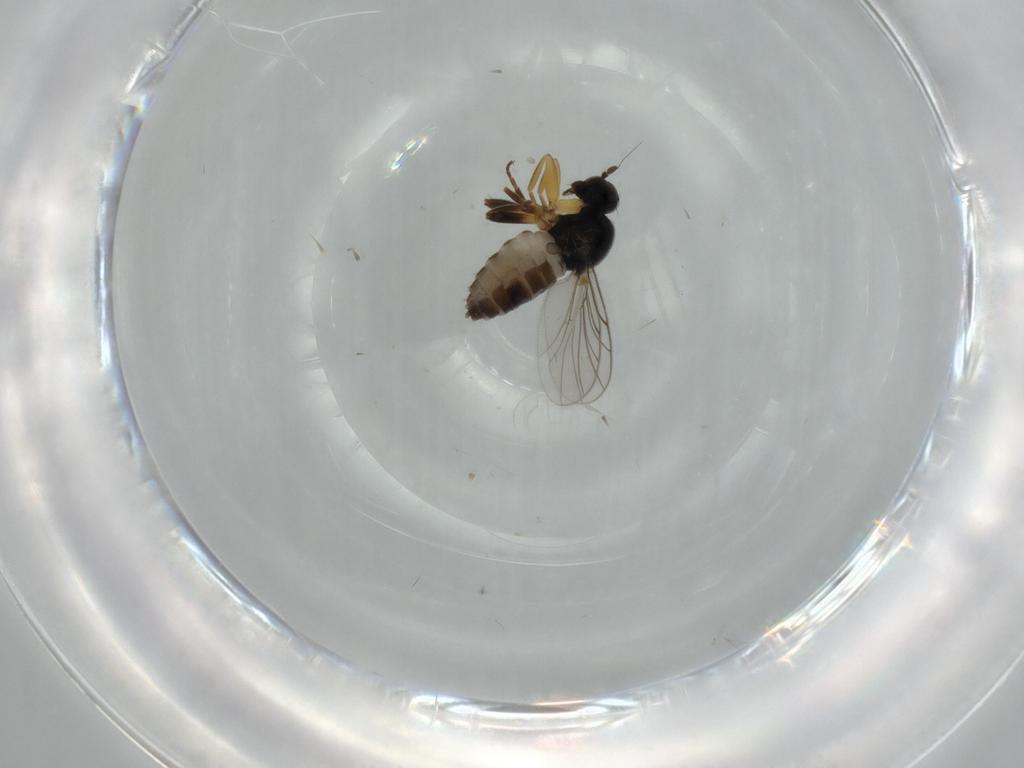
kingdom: Animalia
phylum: Arthropoda
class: Insecta
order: Diptera
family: Hybotidae
